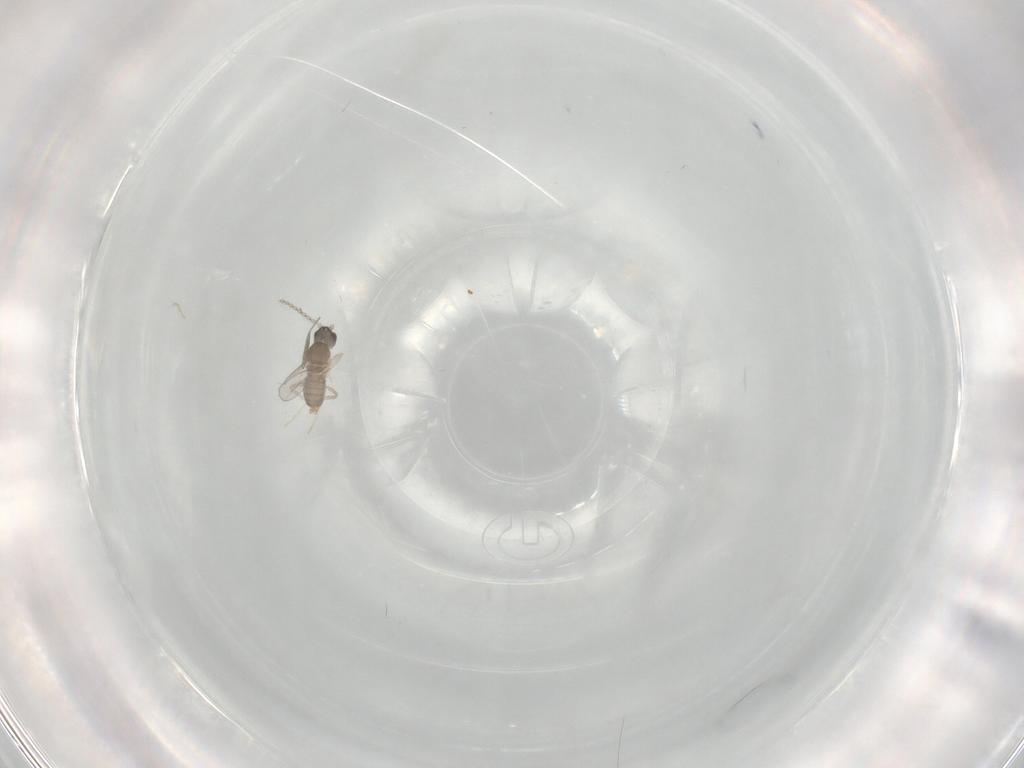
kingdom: Animalia
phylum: Arthropoda
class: Insecta
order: Diptera
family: Cecidomyiidae
